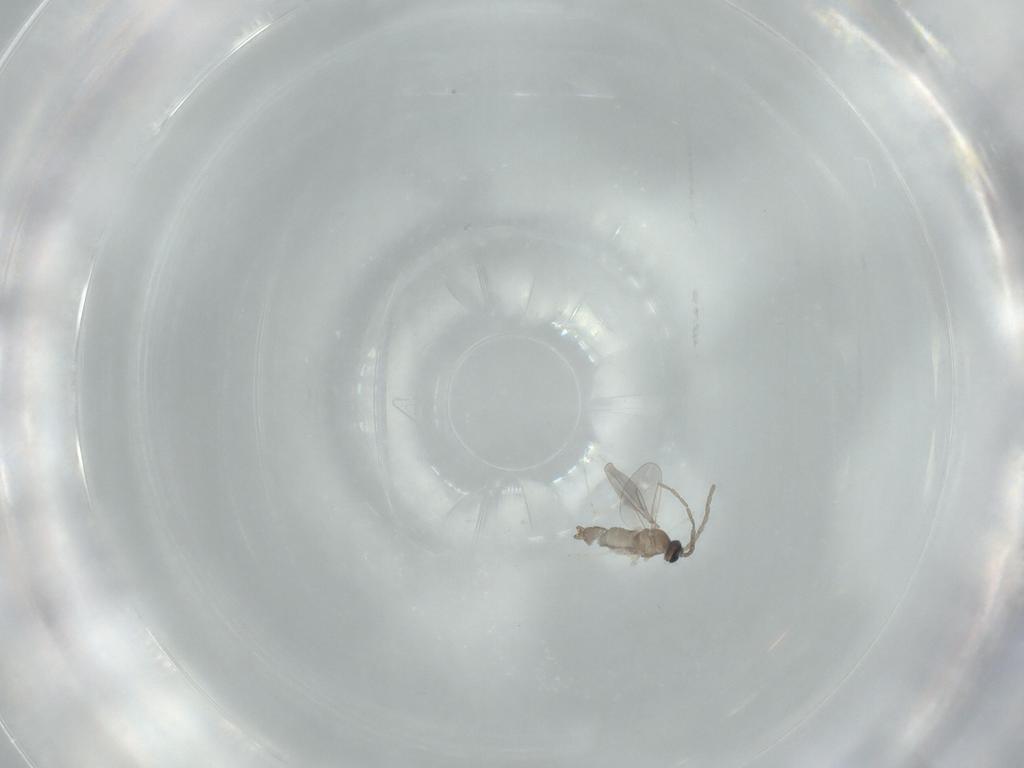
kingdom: Animalia
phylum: Arthropoda
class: Insecta
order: Diptera
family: Cecidomyiidae
